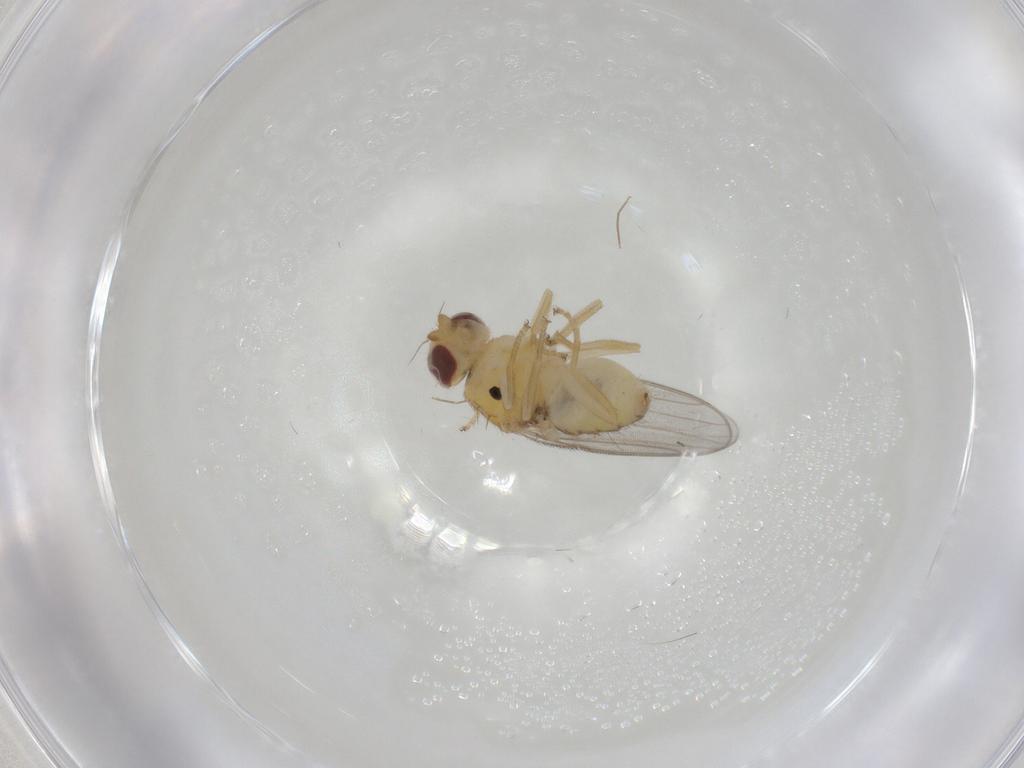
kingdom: Animalia
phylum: Arthropoda
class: Insecta
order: Diptera
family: Chloropidae
